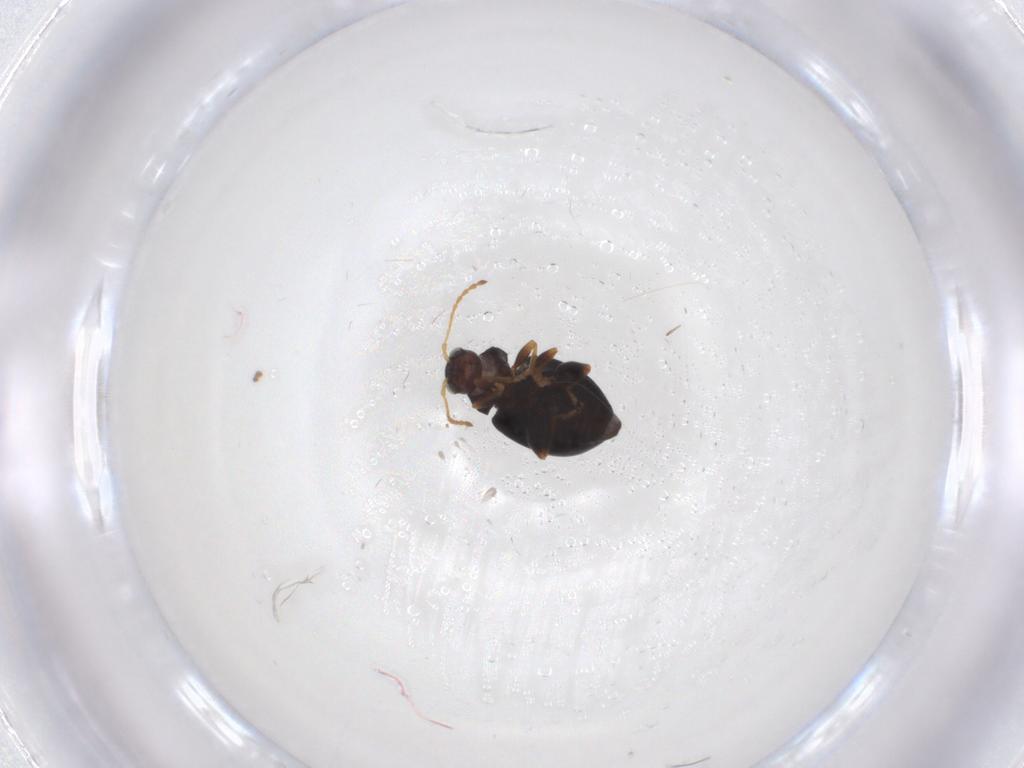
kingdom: Animalia
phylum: Arthropoda
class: Insecta
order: Coleoptera
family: Chrysomelidae
